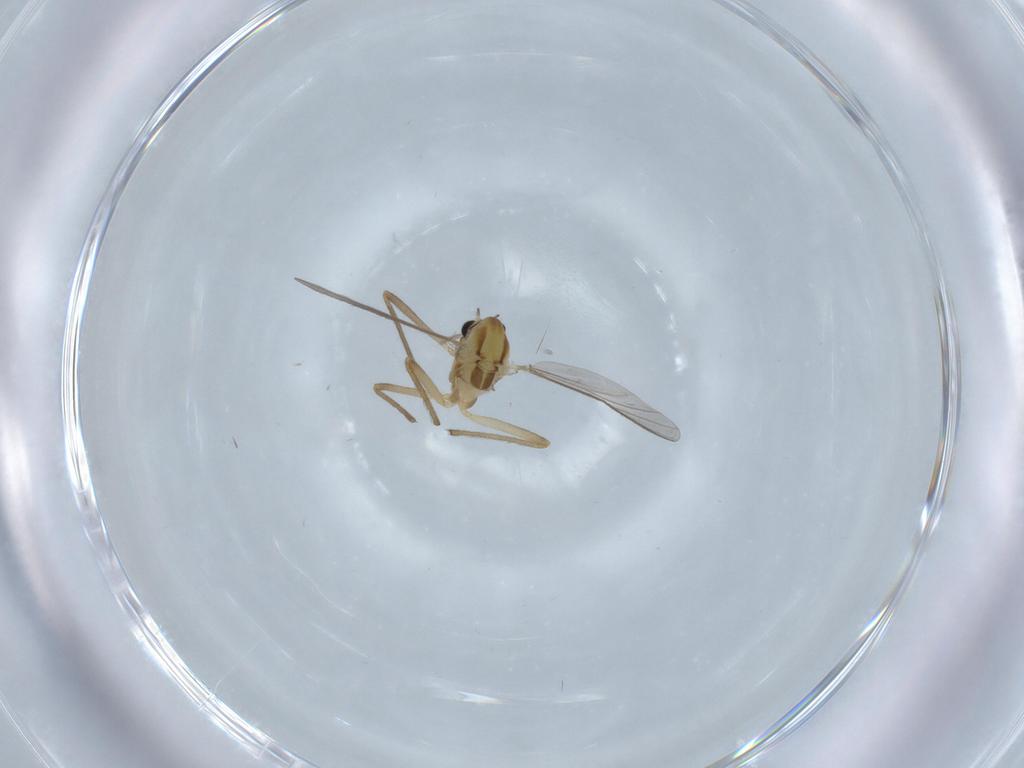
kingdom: Animalia
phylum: Arthropoda
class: Insecta
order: Diptera
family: Chironomidae
